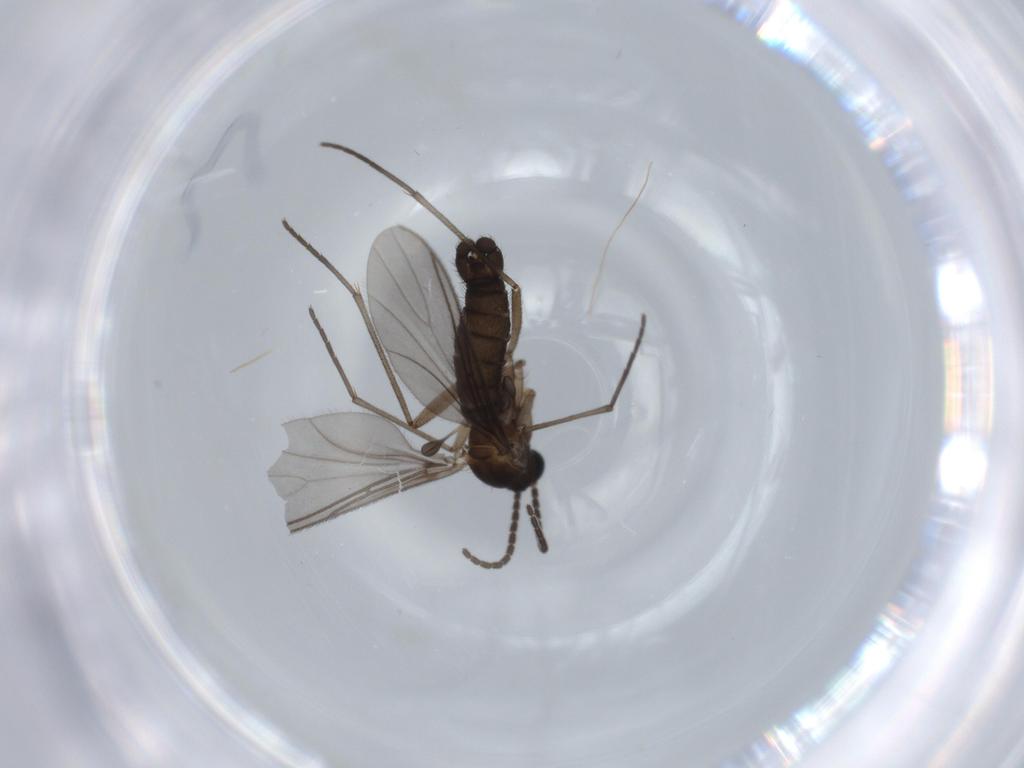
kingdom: Animalia
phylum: Arthropoda
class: Insecta
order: Diptera
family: Sciaridae
